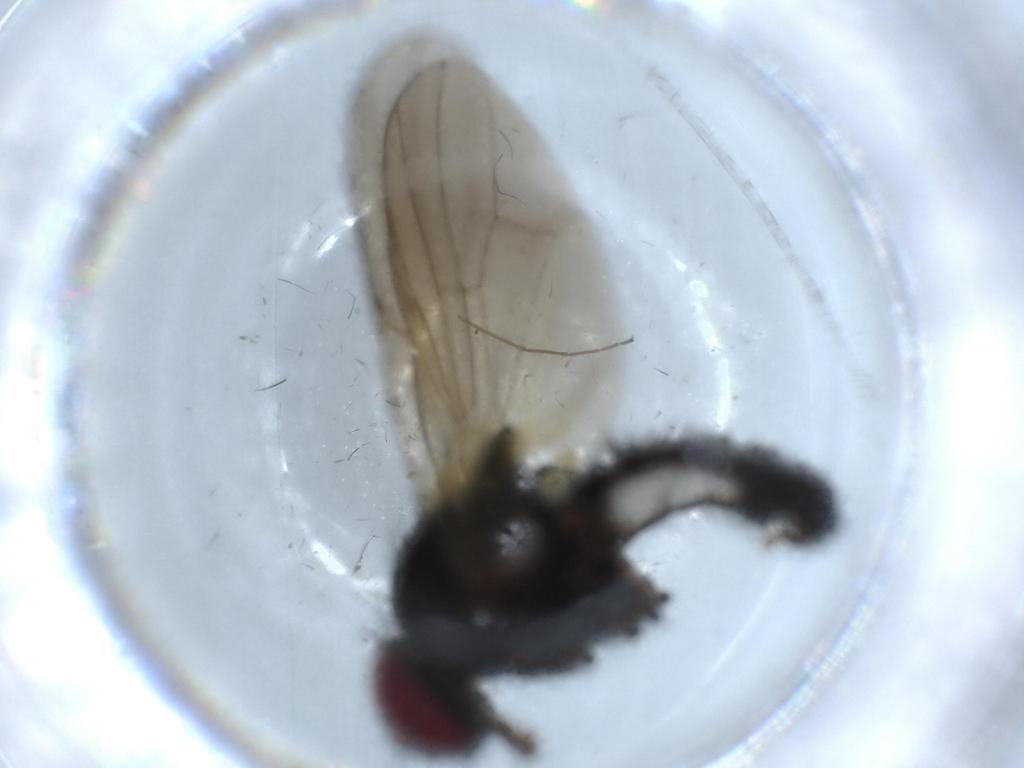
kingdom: Animalia
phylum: Arthropoda
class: Insecta
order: Diptera
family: Fannia
